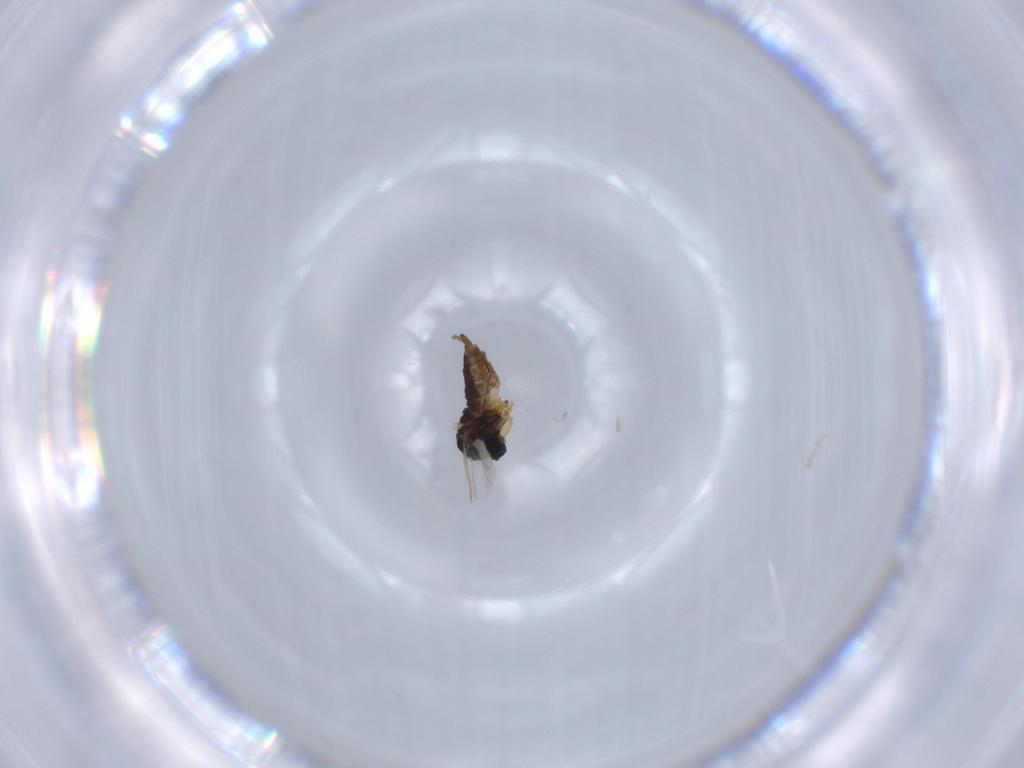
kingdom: Animalia
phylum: Arthropoda
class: Insecta
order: Diptera
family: Sciaridae
